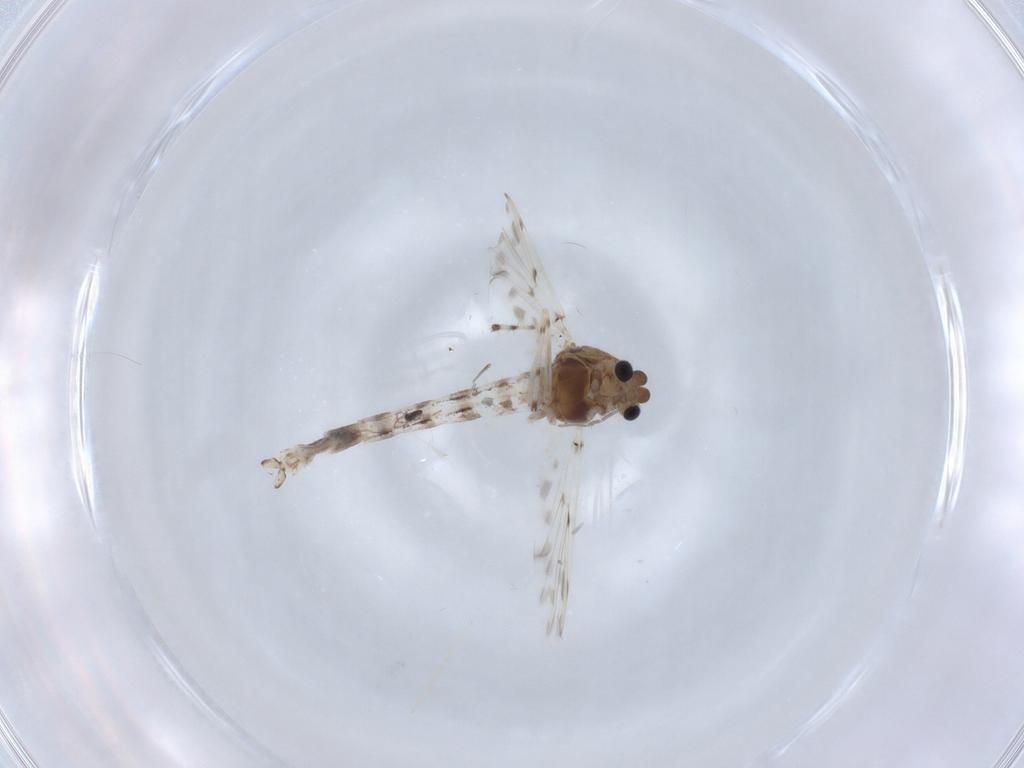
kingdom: Animalia
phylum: Arthropoda
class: Insecta
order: Diptera
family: Chironomidae
